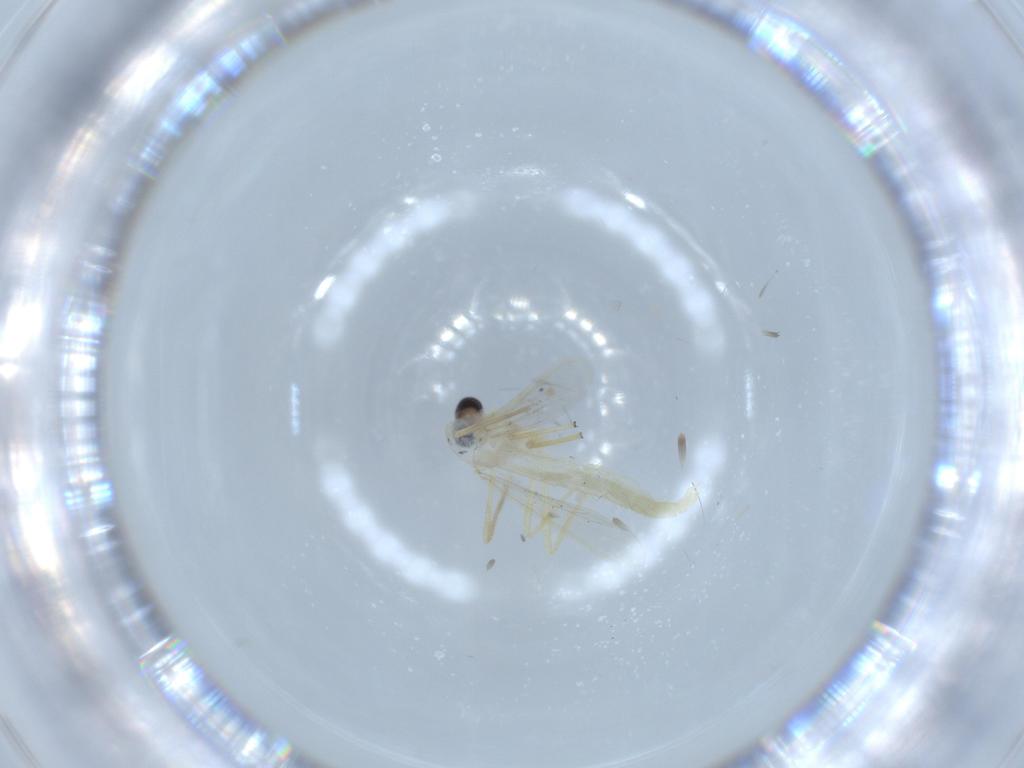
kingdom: Animalia
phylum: Arthropoda
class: Insecta
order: Diptera
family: Chironomidae
